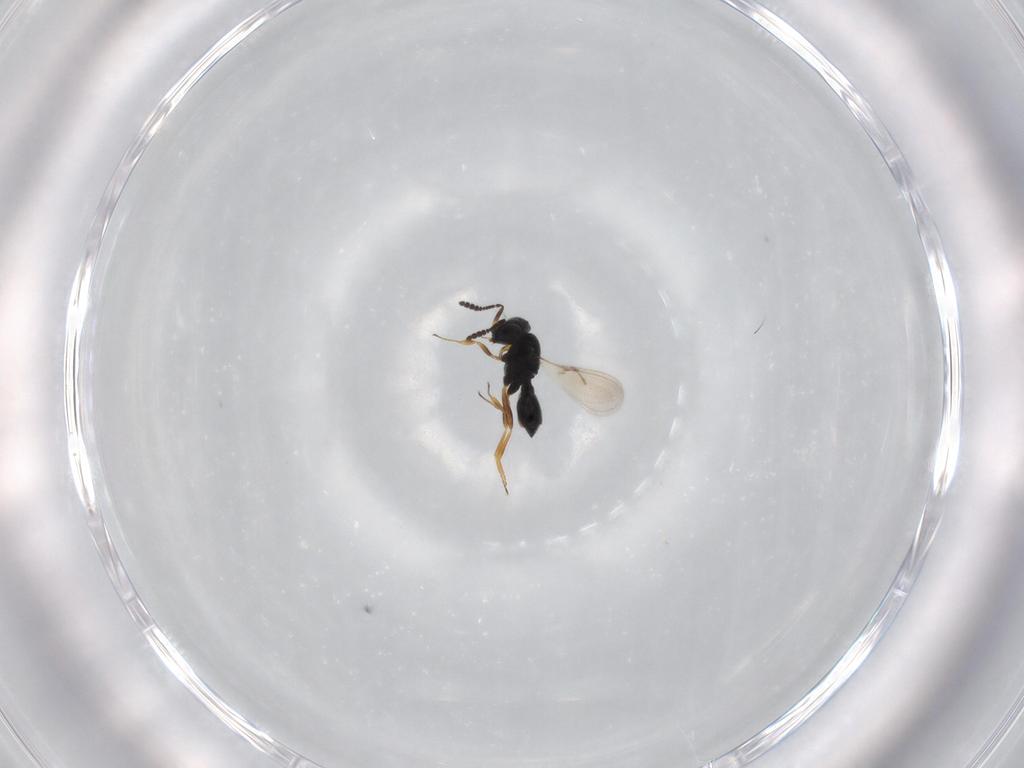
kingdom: Animalia
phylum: Arthropoda
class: Insecta
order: Hymenoptera
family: Scelionidae
